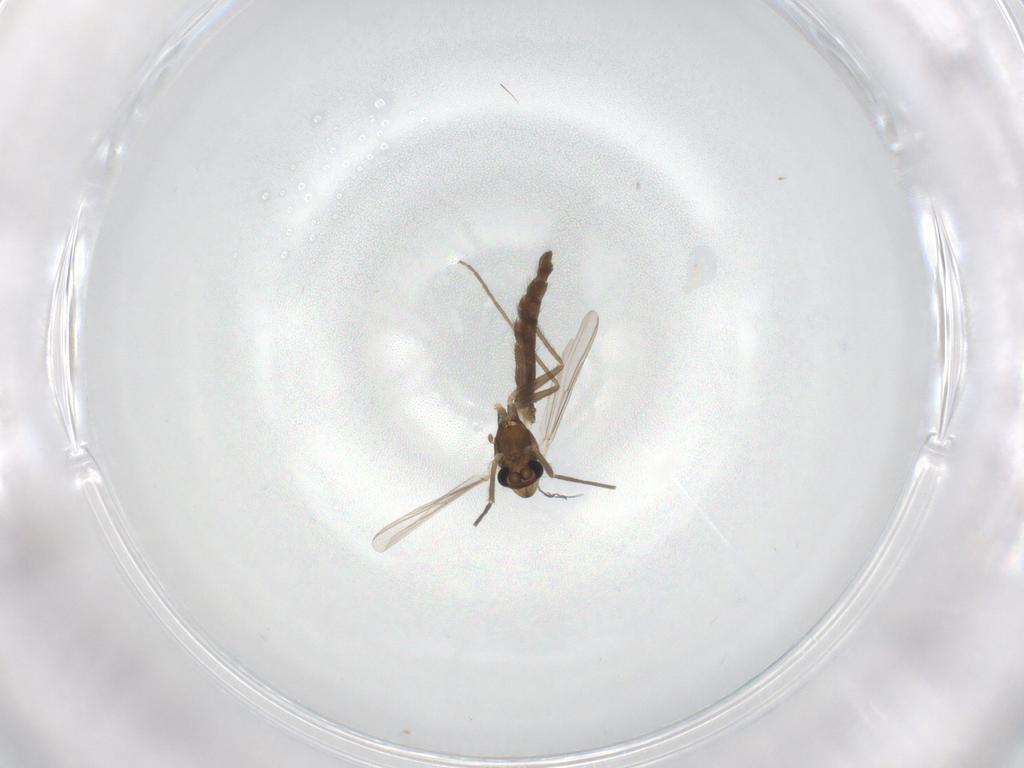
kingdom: Animalia
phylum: Arthropoda
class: Insecta
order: Diptera
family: Chironomidae
